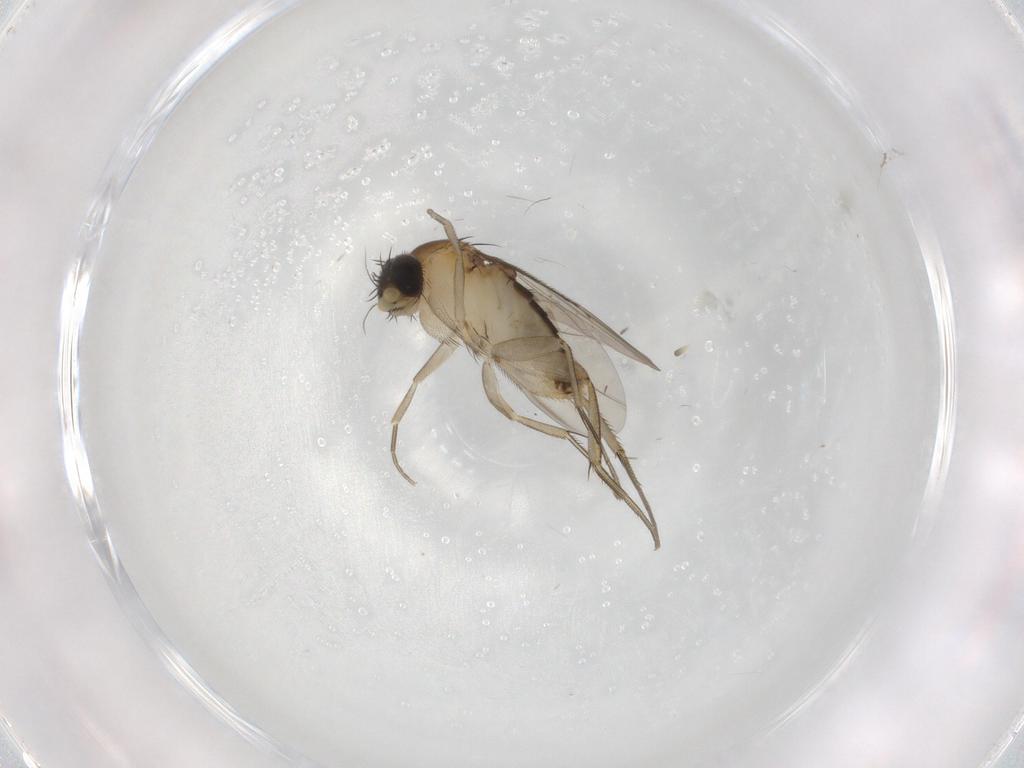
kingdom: Animalia
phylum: Arthropoda
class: Insecta
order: Diptera
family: Phoridae
